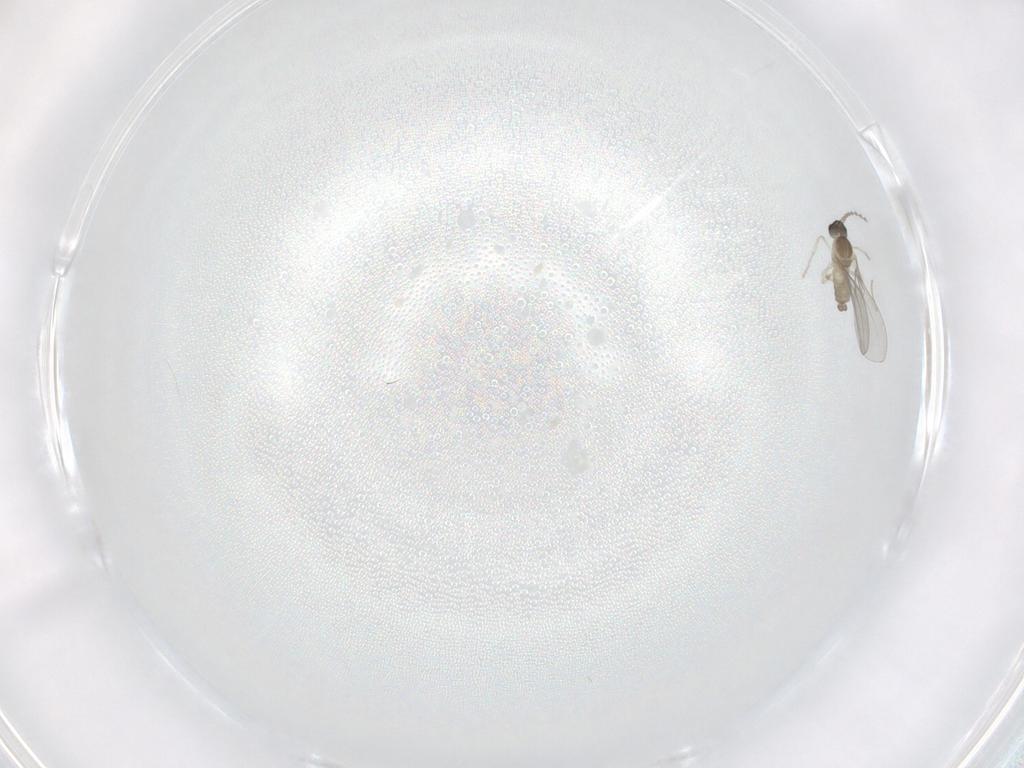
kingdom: Animalia
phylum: Arthropoda
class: Insecta
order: Diptera
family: Cecidomyiidae
